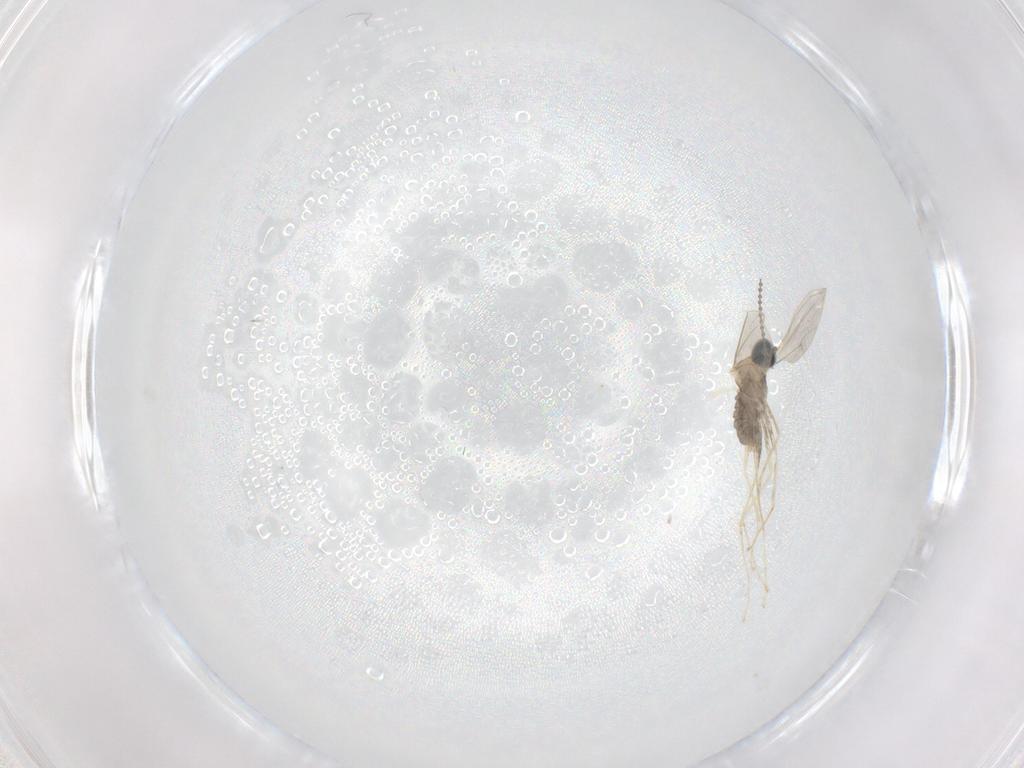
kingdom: Animalia
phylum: Arthropoda
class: Insecta
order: Diptera
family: Cecidomyiidae
